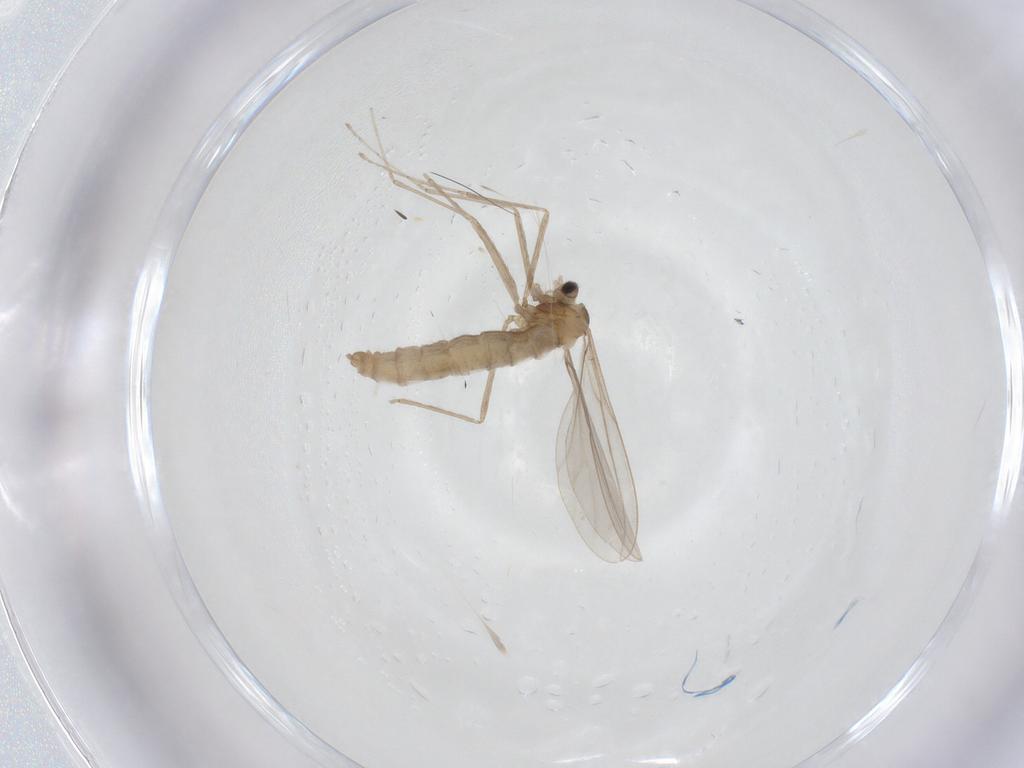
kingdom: Animalia
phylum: Arthropoda
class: Insecta
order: Diptera
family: Cecidomyiidae
